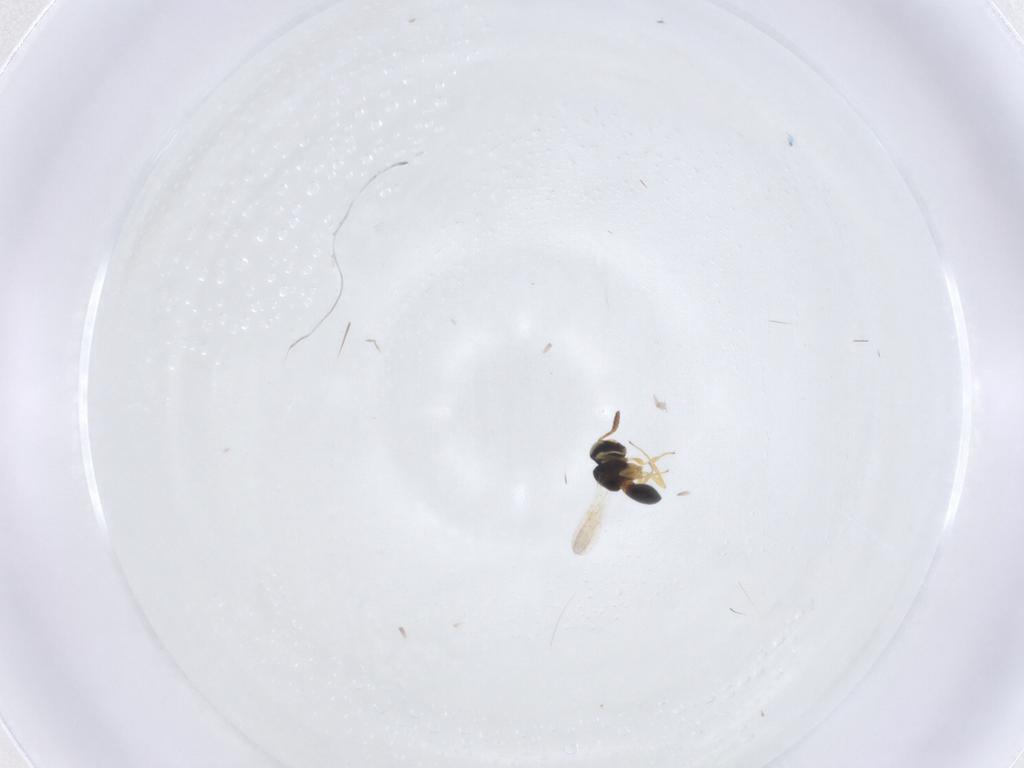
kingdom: Animalia
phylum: Arthropoda
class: Insecta
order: Hymenoptera
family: Scelionidae
